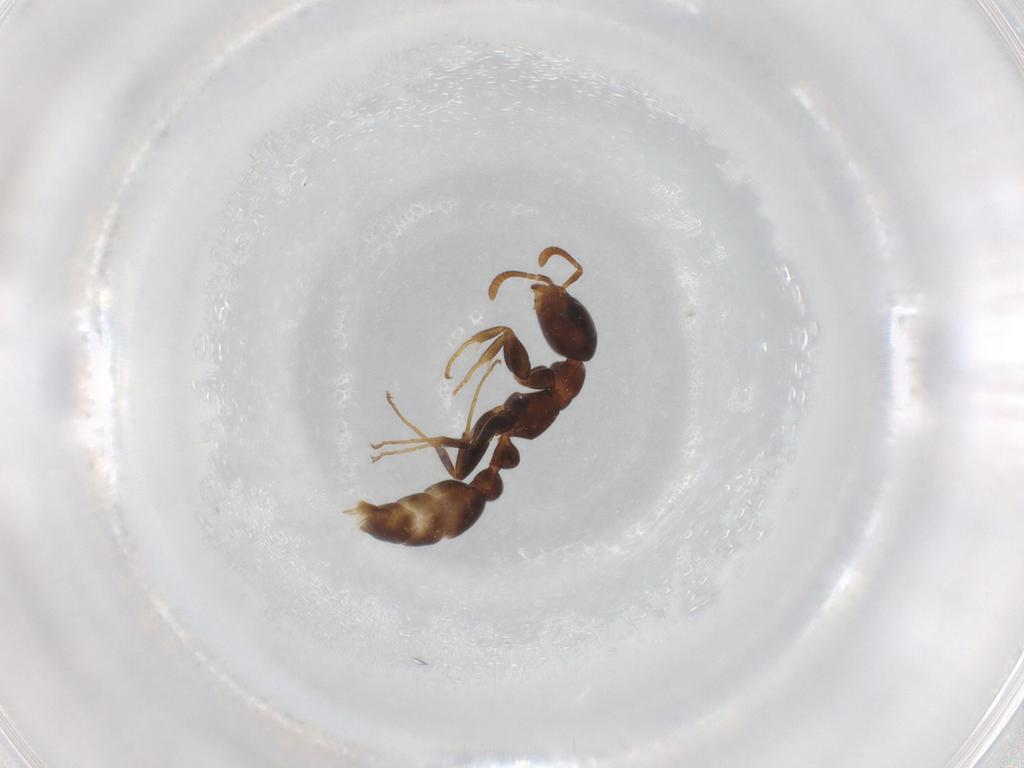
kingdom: Animalia
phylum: Arthropoda
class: Insecta
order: Hymenoptera
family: Formicidae
